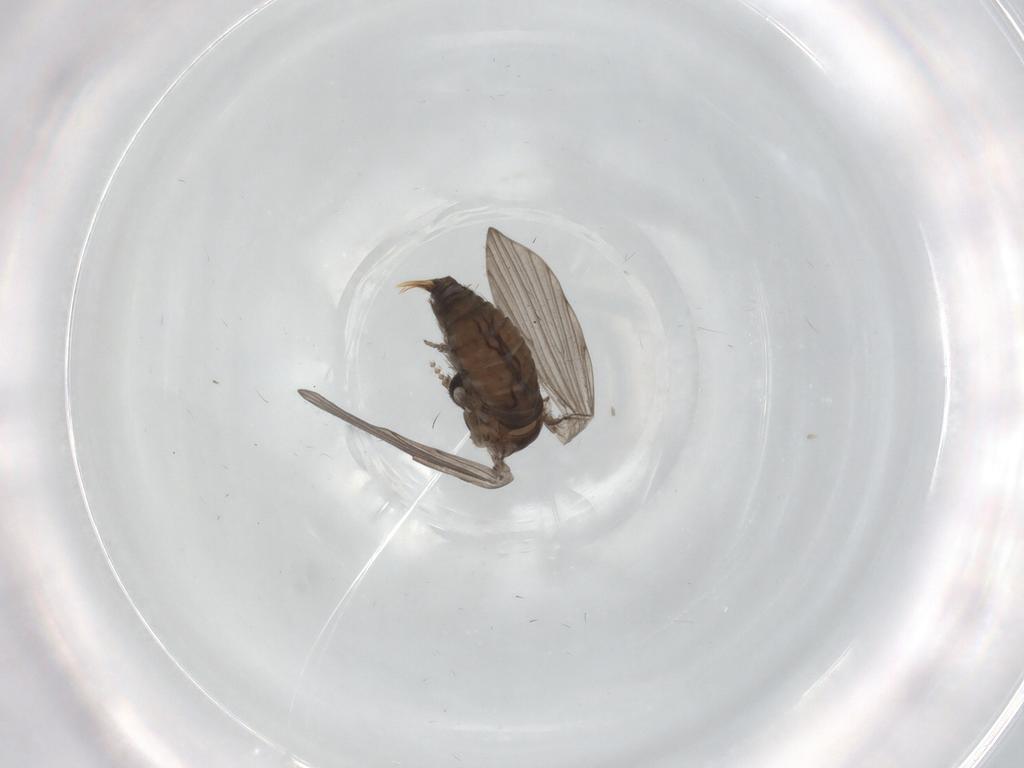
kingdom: Animalia
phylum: Arthropoda
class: Insecta
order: Diptera
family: Psychodidae
